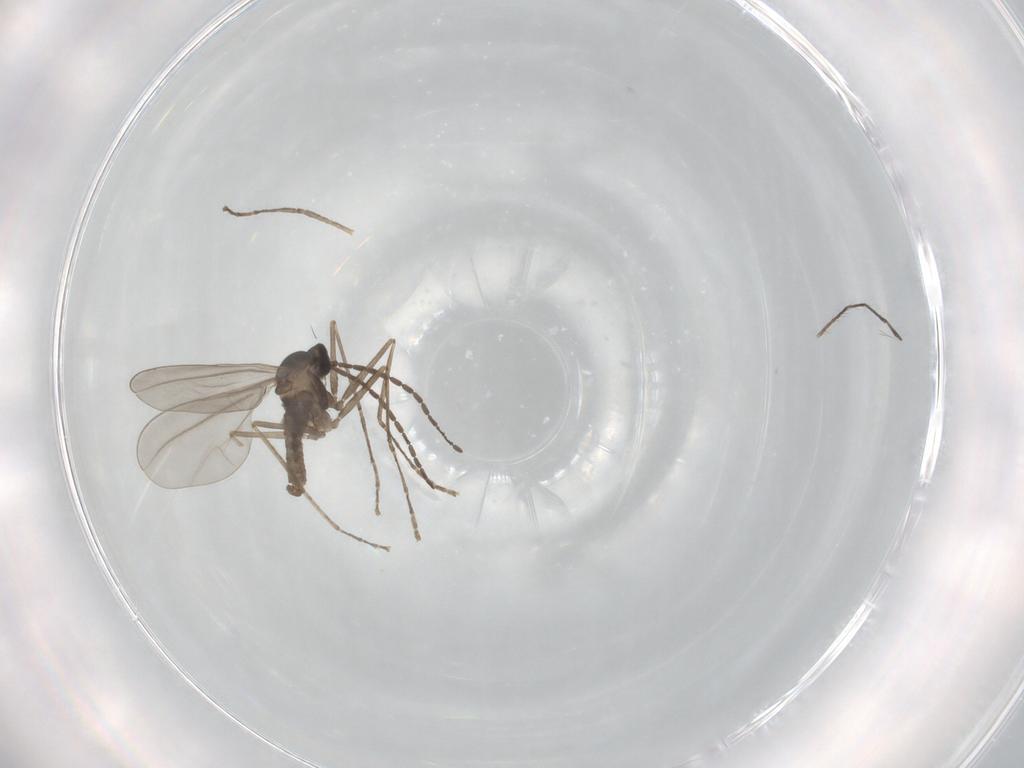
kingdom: Animalia
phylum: Arthropoda
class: Insecta
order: Diptera
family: Cecidomyiidae
